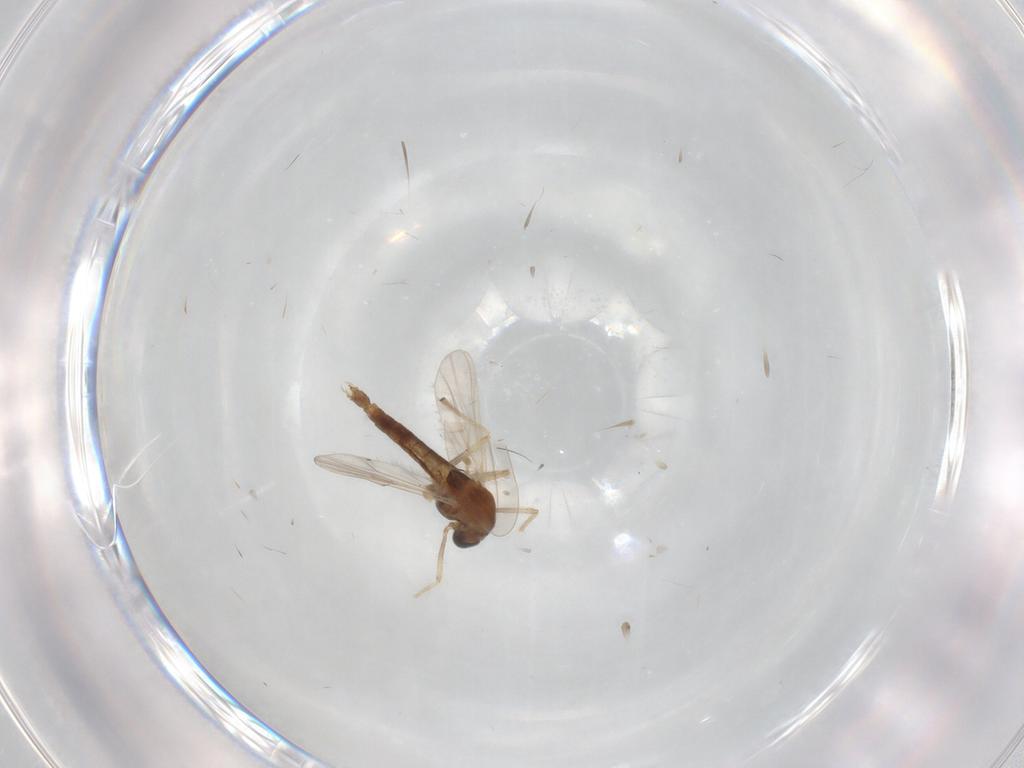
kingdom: Animalia
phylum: Arthropoda
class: Insecta
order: Diptera
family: Chironomidae
